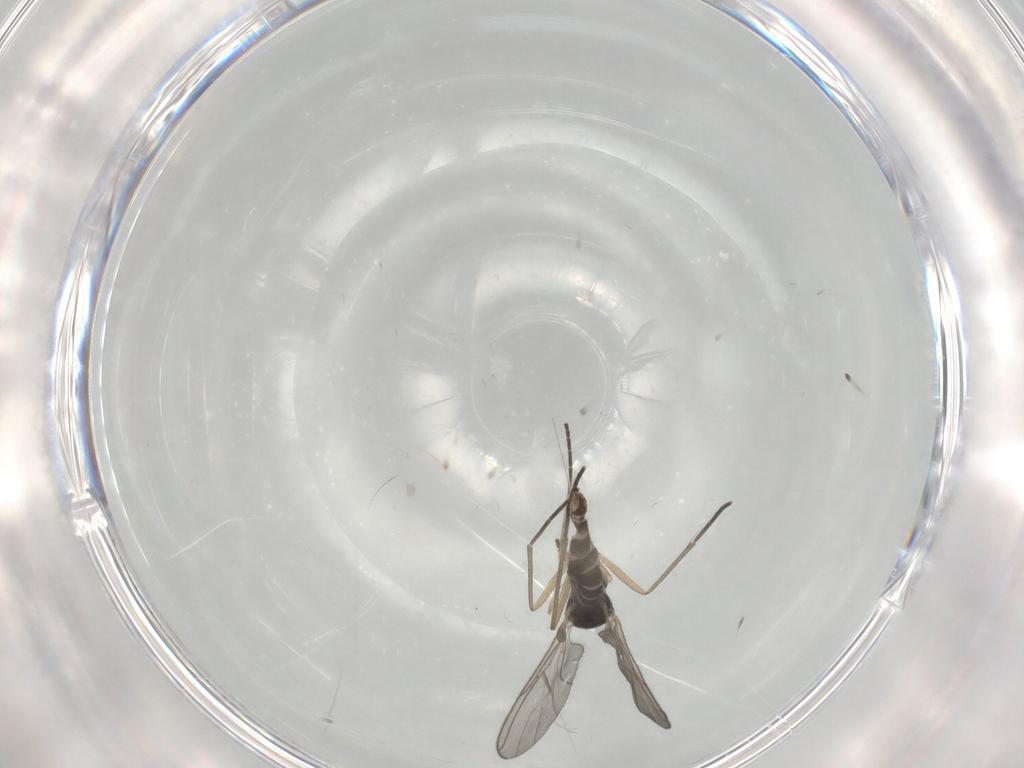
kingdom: Animalia
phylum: Arthropoda
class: Insecta
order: Diptera
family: Sciaridae
